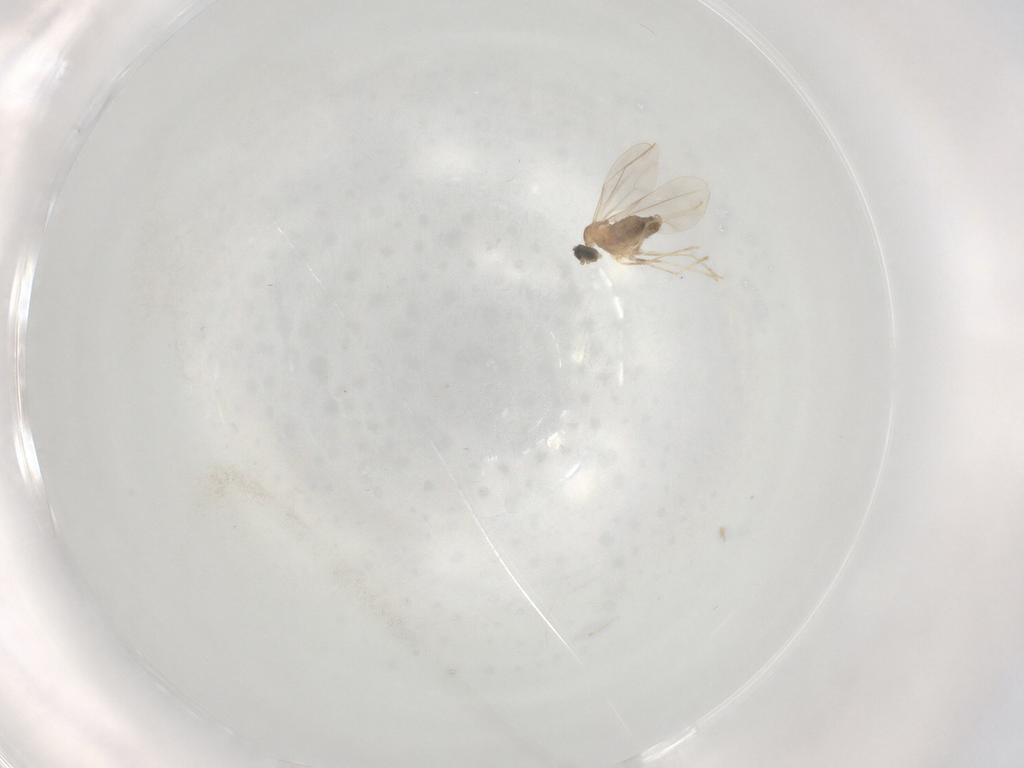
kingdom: Animalia
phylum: Arthropoda
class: Insecta
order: Diptera
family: Cecidomyiidae
